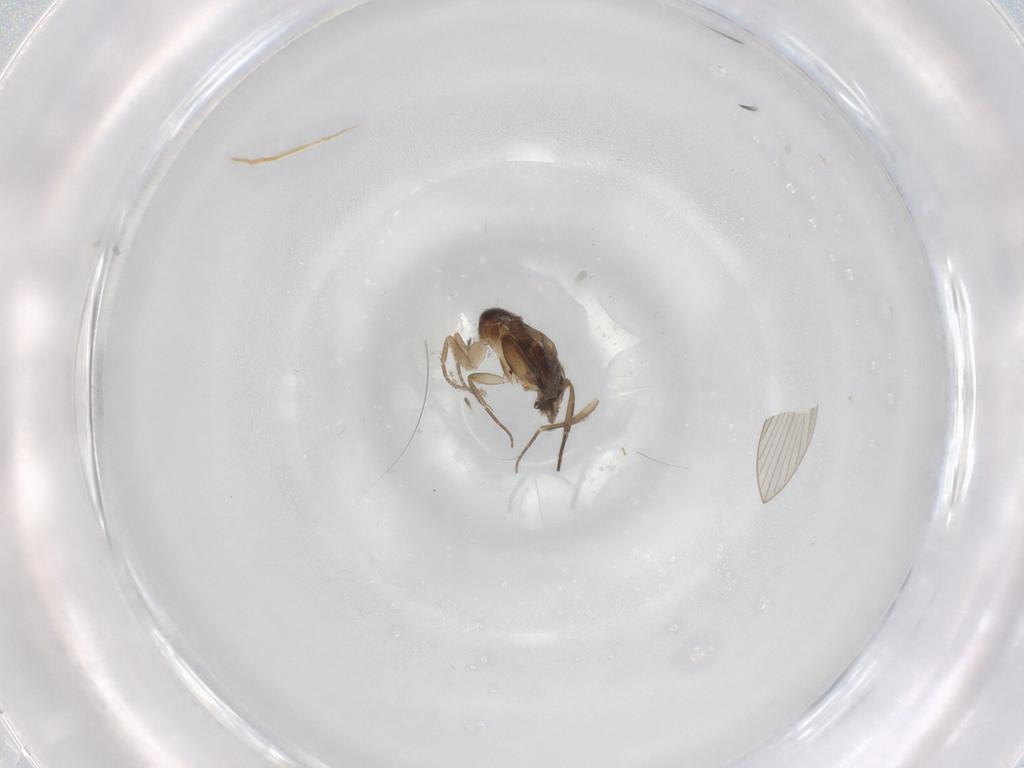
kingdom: Animalia
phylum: Arthropoda
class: Insecta
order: Diptera
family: Phoridae
